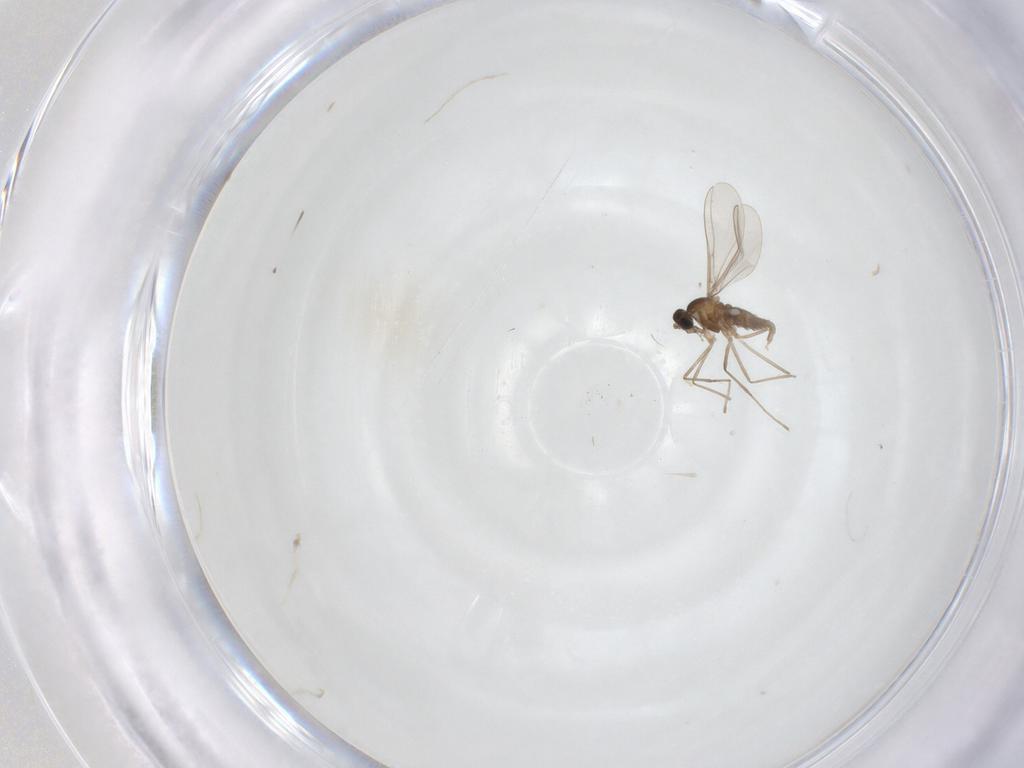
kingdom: Animalia
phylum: Arthropoda
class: Insecta
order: Diptera
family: Cecidomyiidae
